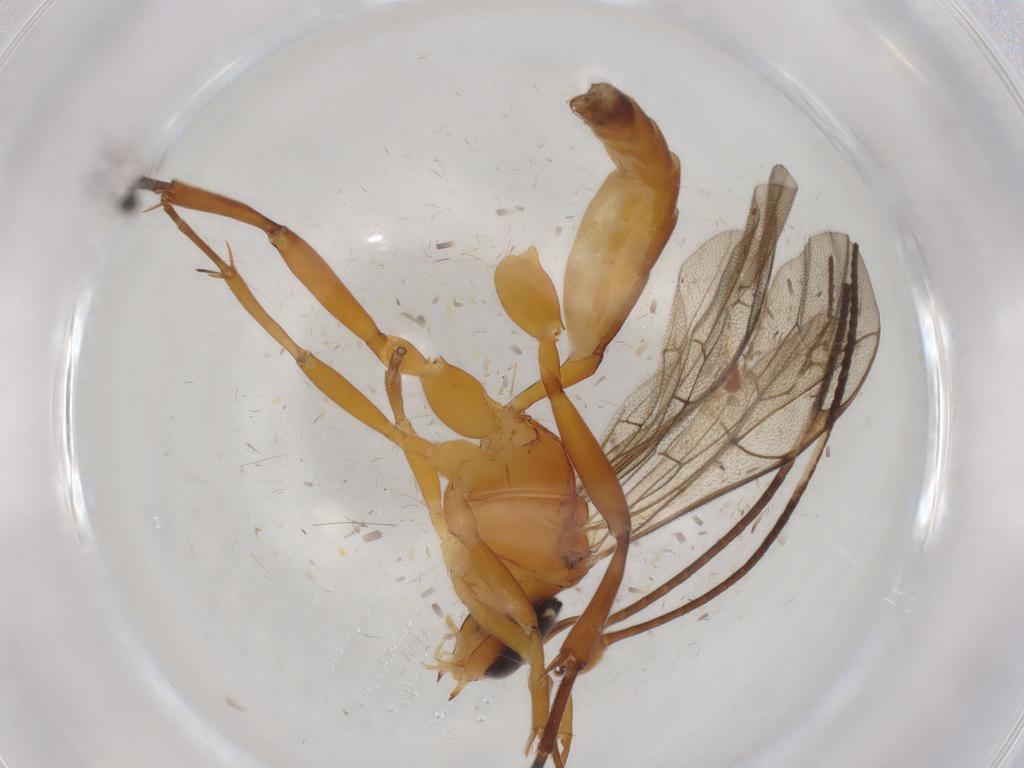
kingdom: Animalia
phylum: Arthropoda
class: Insecta
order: Hymenoptera
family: Ichneumonidae
